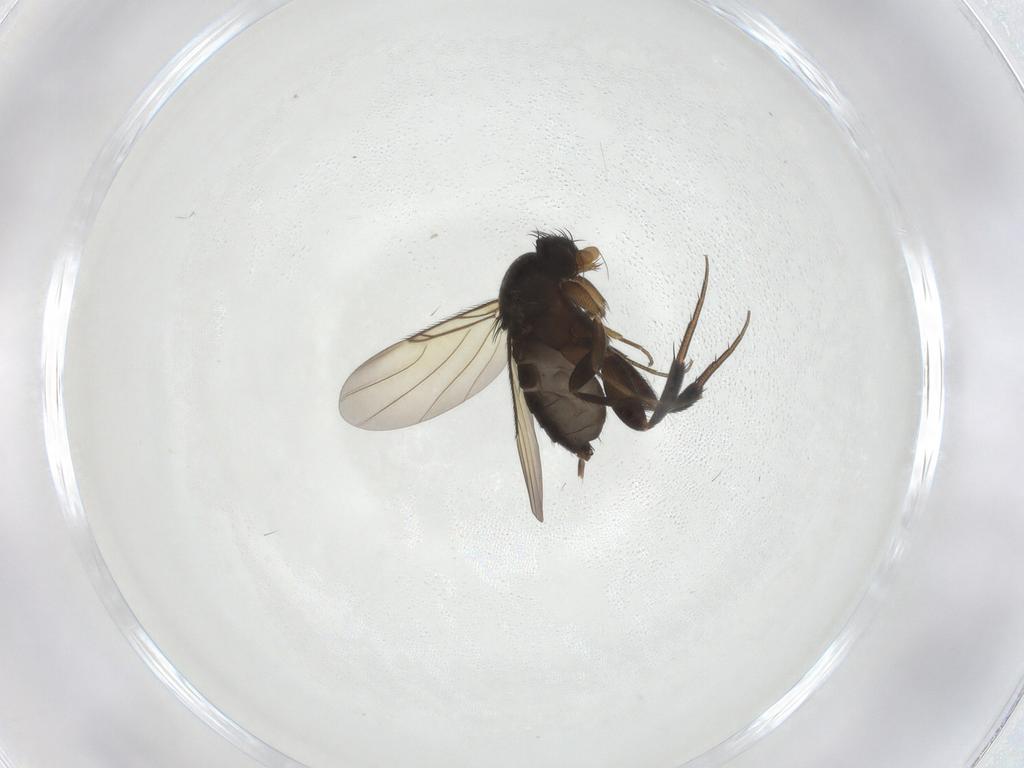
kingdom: Animalia
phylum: Arthropoda
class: Insecta
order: Diptera
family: Phoridae
